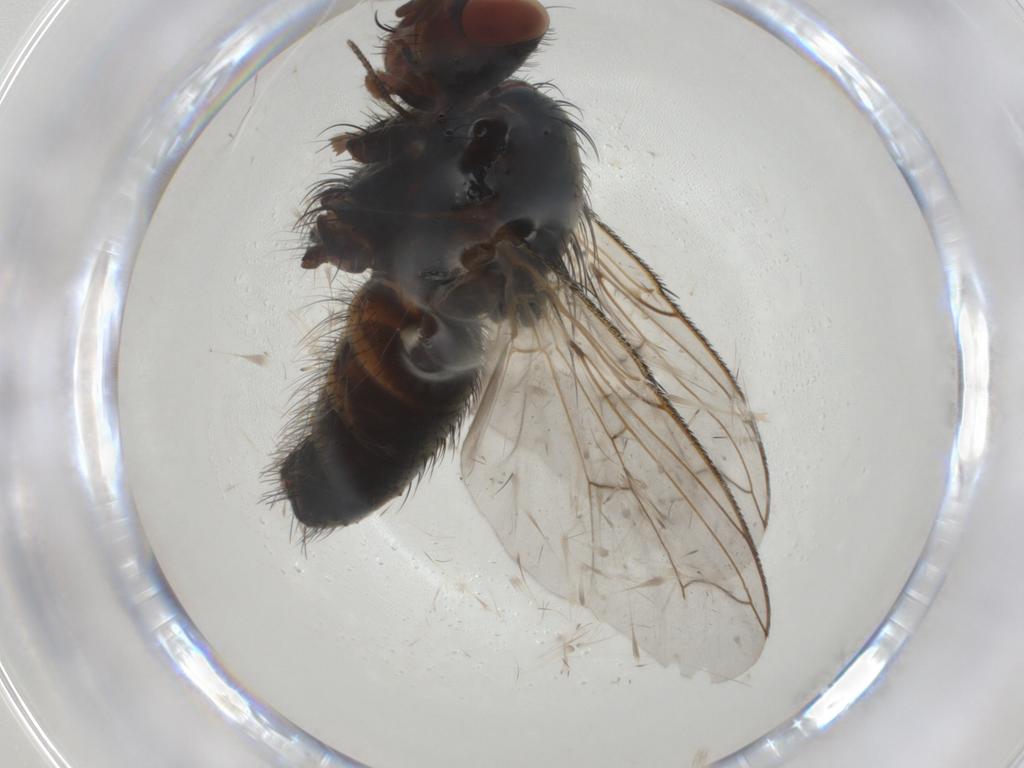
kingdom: Animalia
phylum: Arthropoda
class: Insecta
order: Diptera
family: Tachinidae
